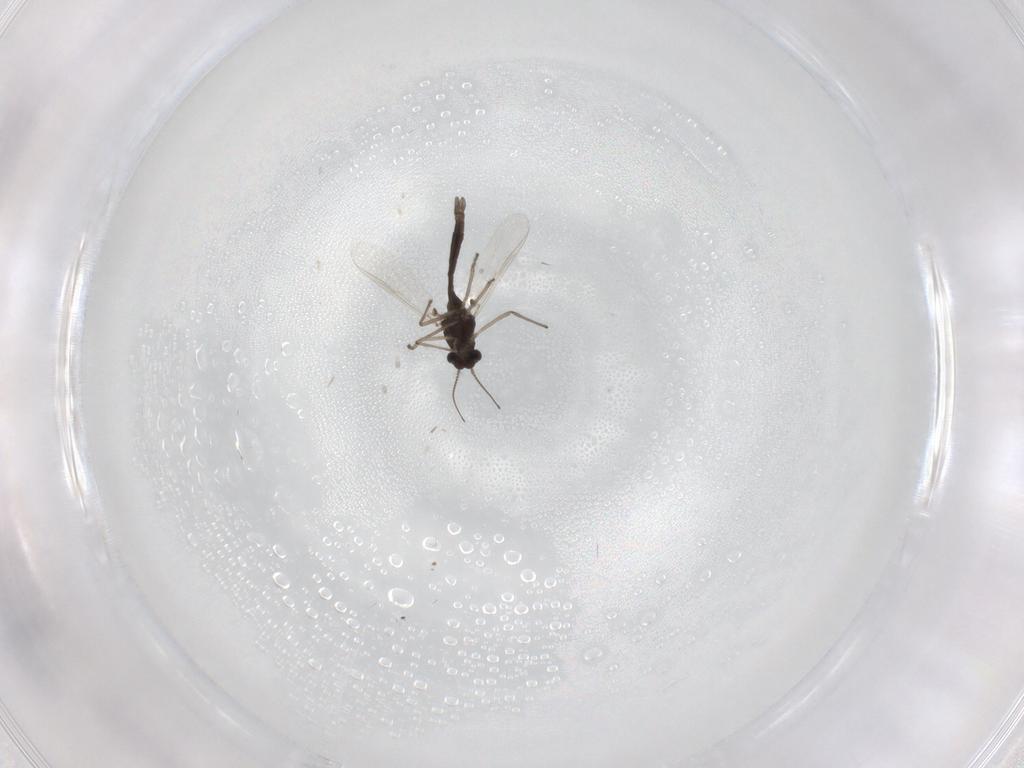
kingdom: Animalia
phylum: Arthropoda
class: Insecta
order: Diptera
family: Chironomidae
